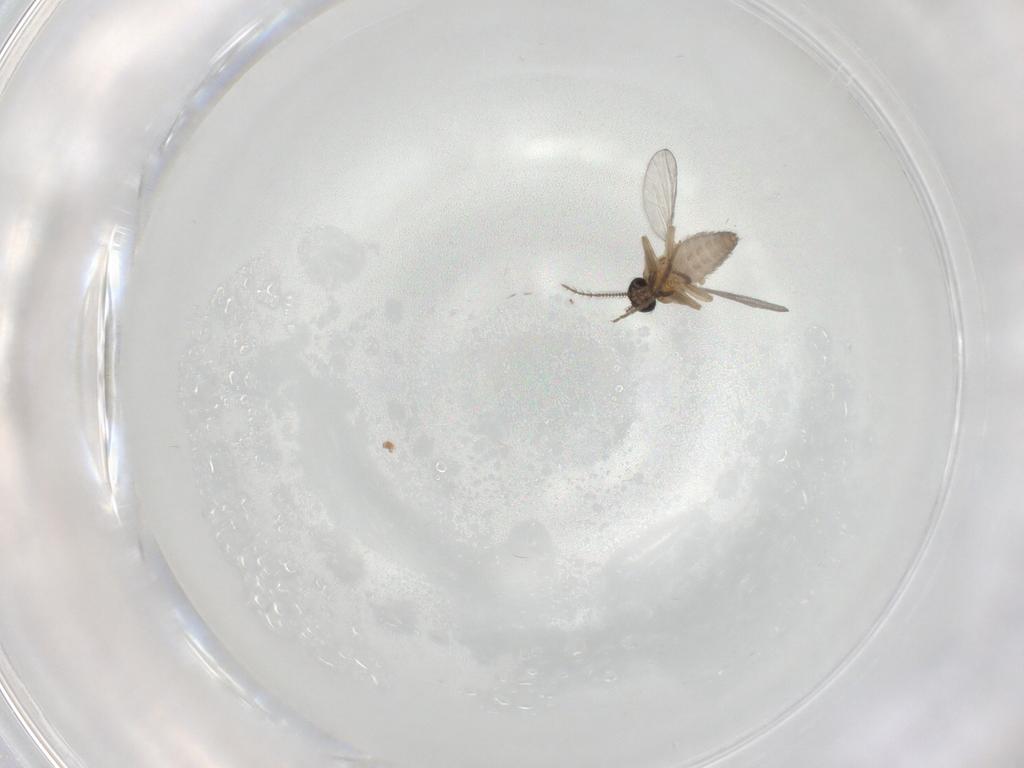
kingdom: Animalia
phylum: Arthropoda
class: Insecta
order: Diptera
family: Ceratopogonidae
